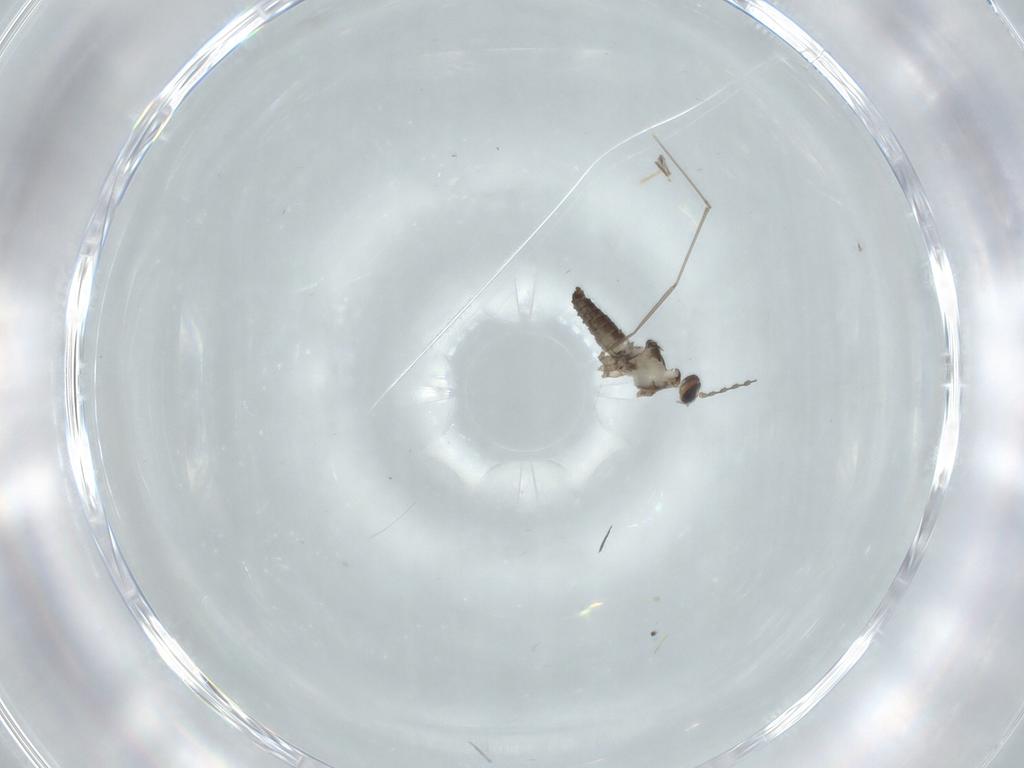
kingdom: Animalia
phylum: Arthropoda
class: Insecta
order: Diptera
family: Cecidomyiidae
